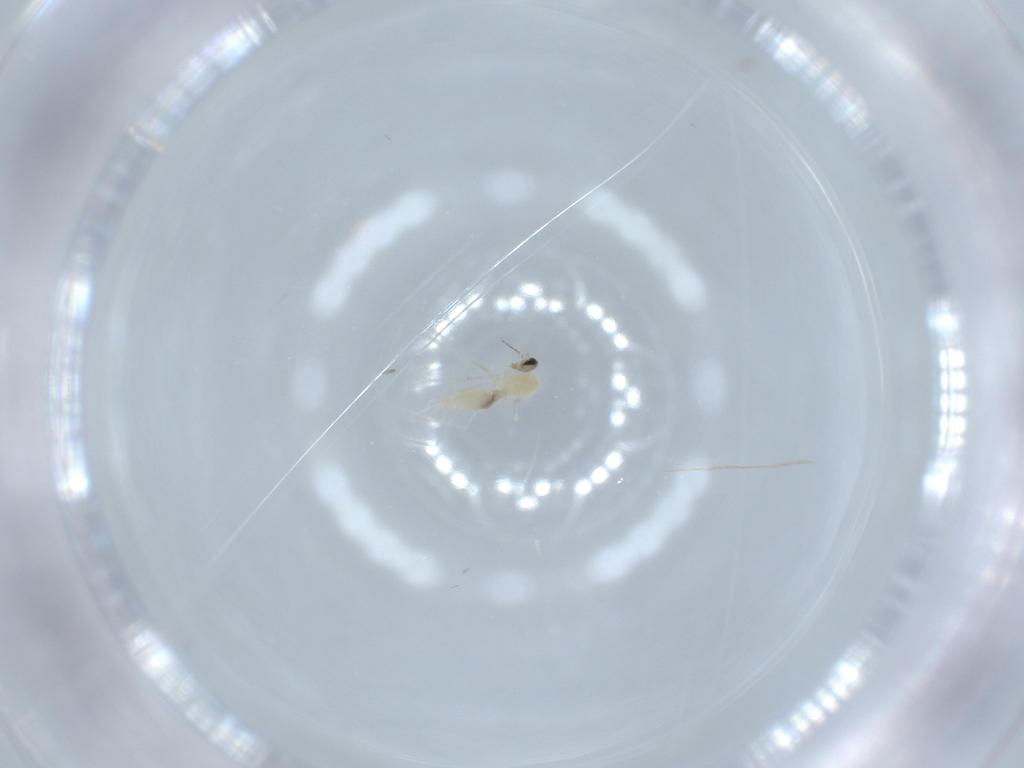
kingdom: Animalia
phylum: Arthropoda
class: Insecta
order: Diptera
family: Cecidomyiidae
